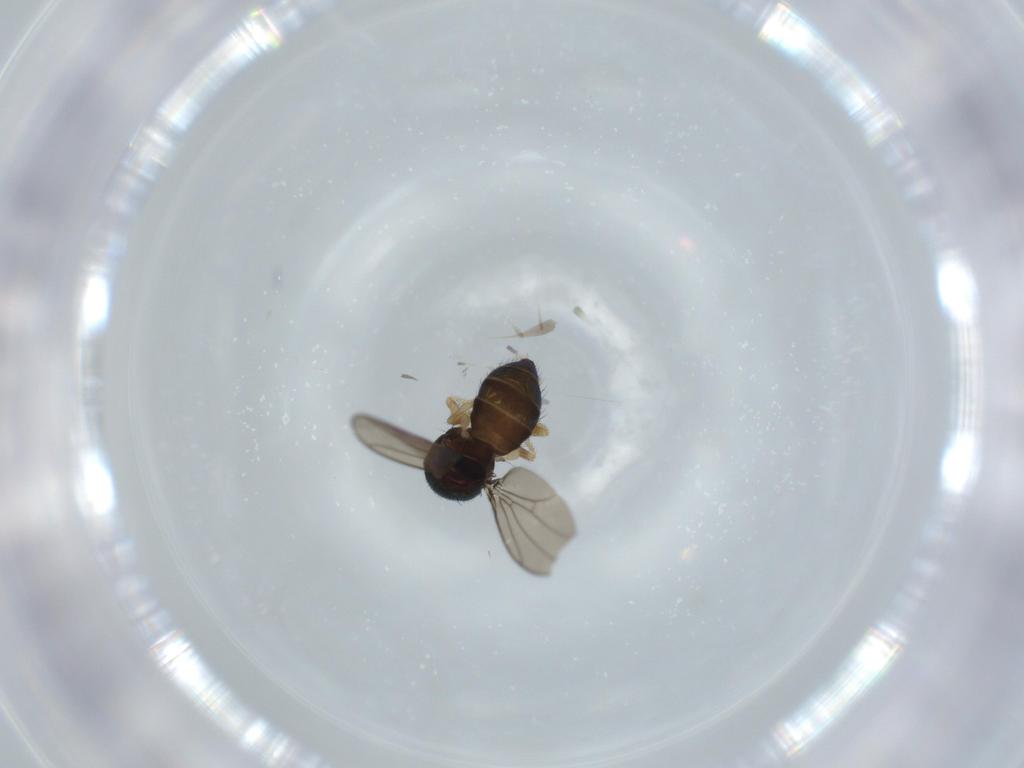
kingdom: Animalia
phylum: Arthropoda
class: Insecta
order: Diptera
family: Drosophilidae
